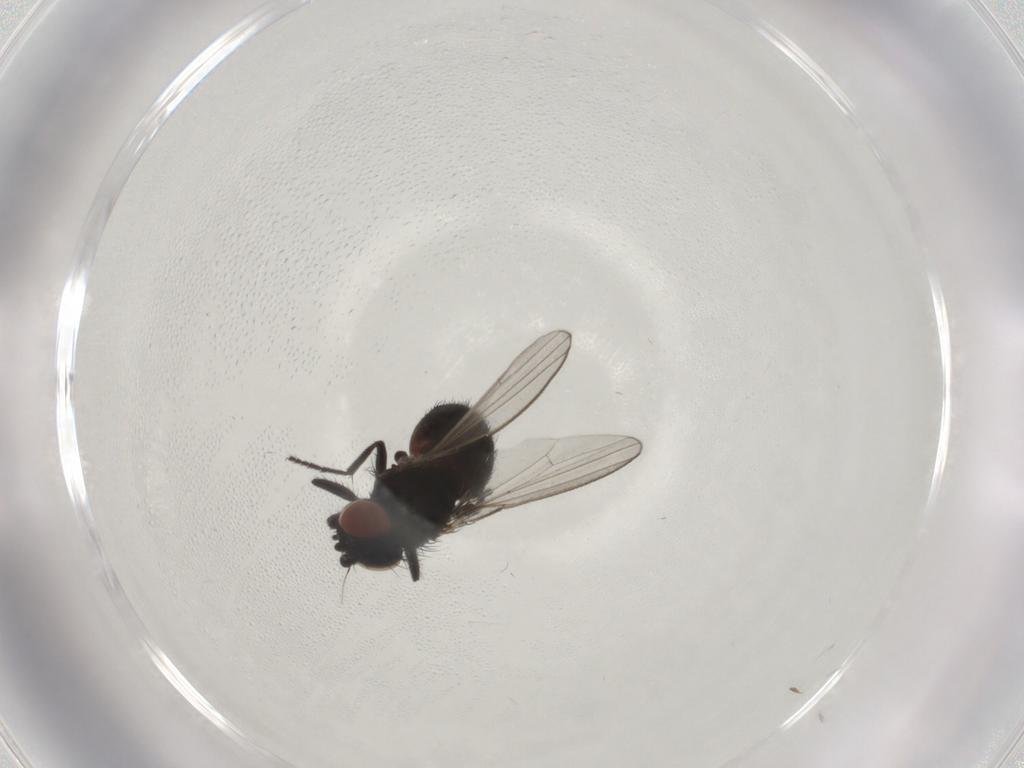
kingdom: Animalia
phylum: Arthropoda
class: Insecta
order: Diptera
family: Milichiidae
